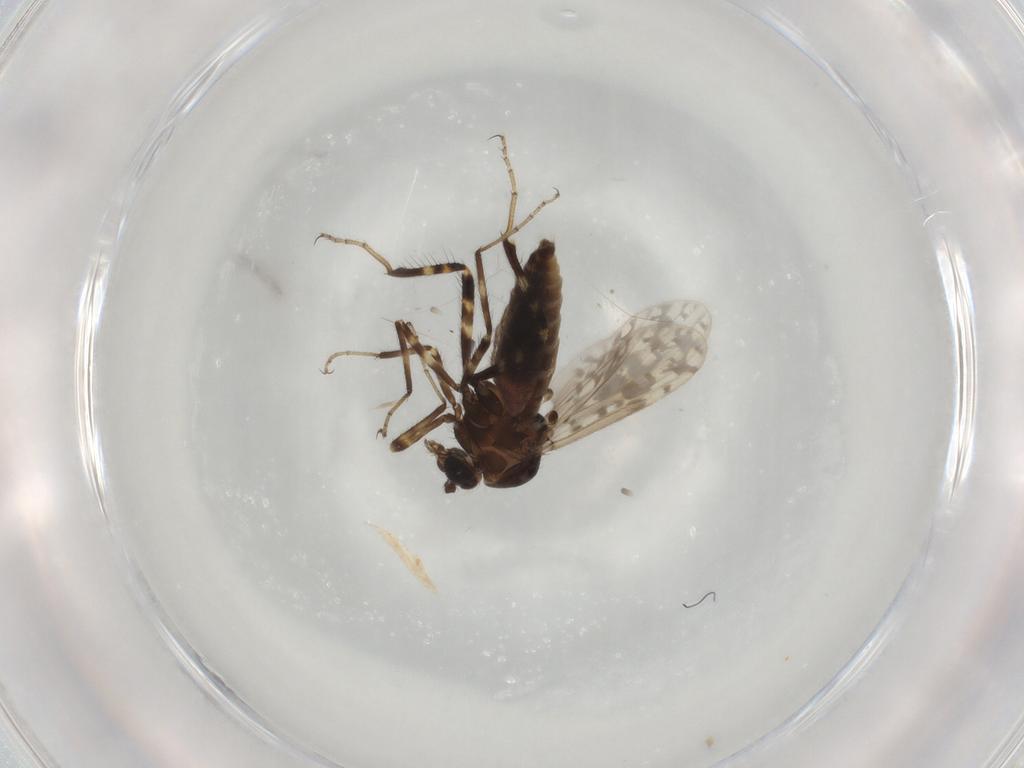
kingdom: Animalia
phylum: Arthropoda
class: Insecta
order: Diptera
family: Ceratopogonidae
